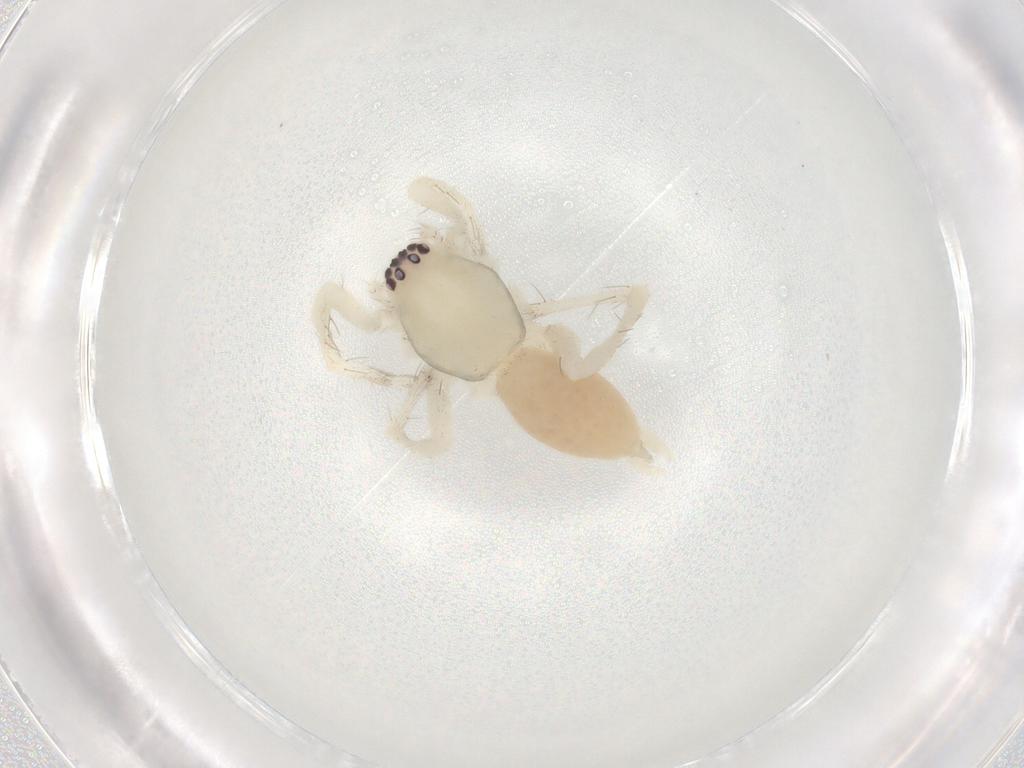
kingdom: Animalia
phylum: Arthropoda
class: Arachnida
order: Araneae
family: Clubionidae
